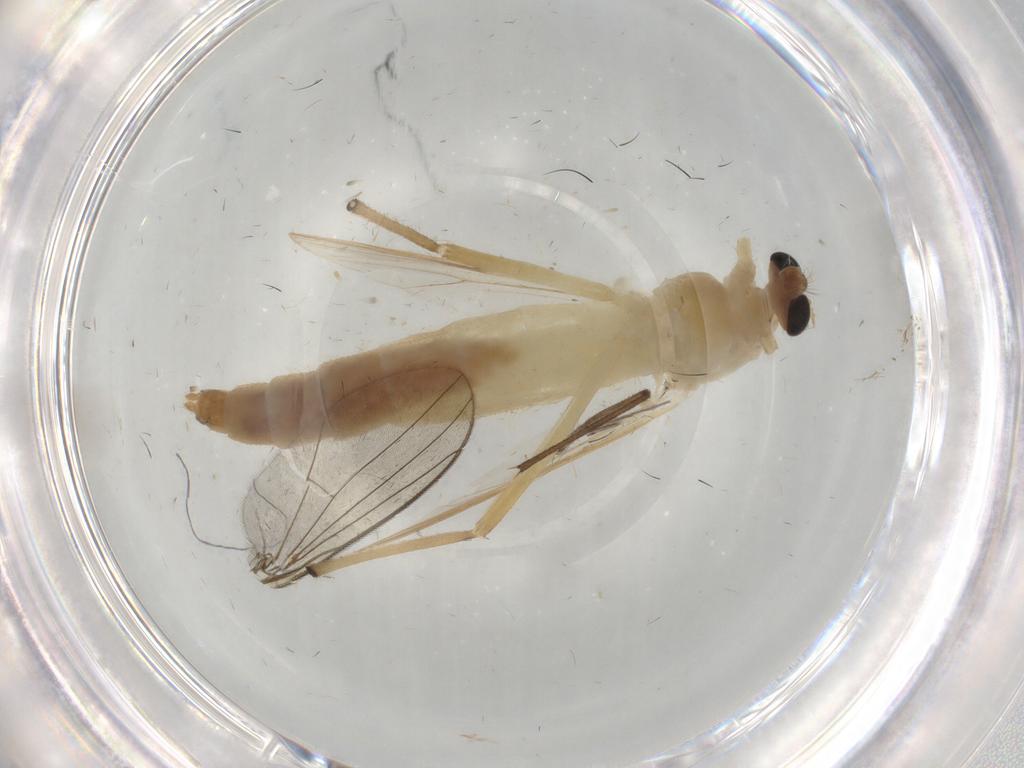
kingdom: Animalia
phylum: Arthropoda
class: Insecta
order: Diptera
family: Chironomidae
